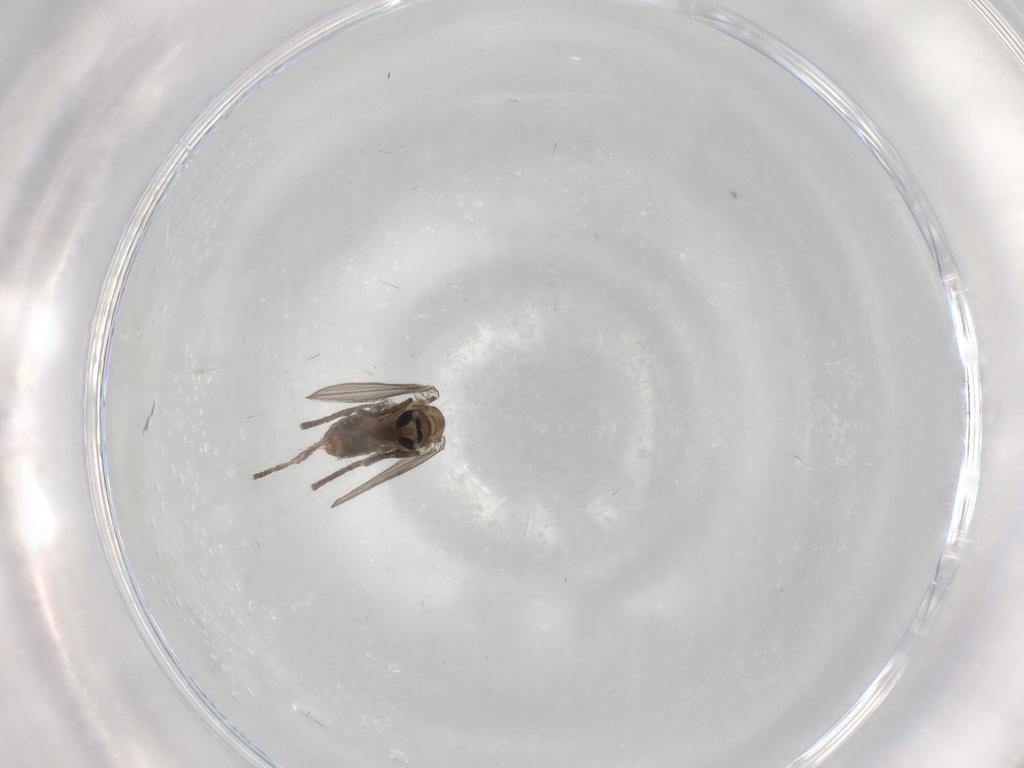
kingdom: Animalia
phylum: Arthropoda
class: Insecta
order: Diptera
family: Psychodidae
